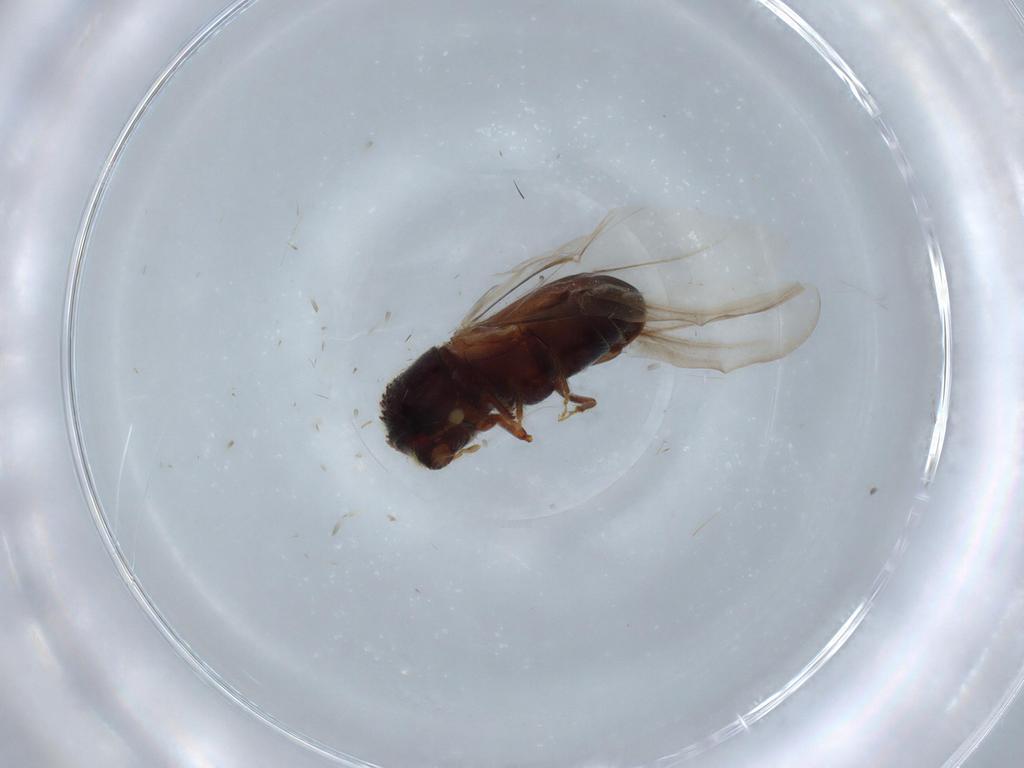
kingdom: Animalia
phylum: Arthropoda
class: Insecta
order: Coleoptera
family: Curculionidae
